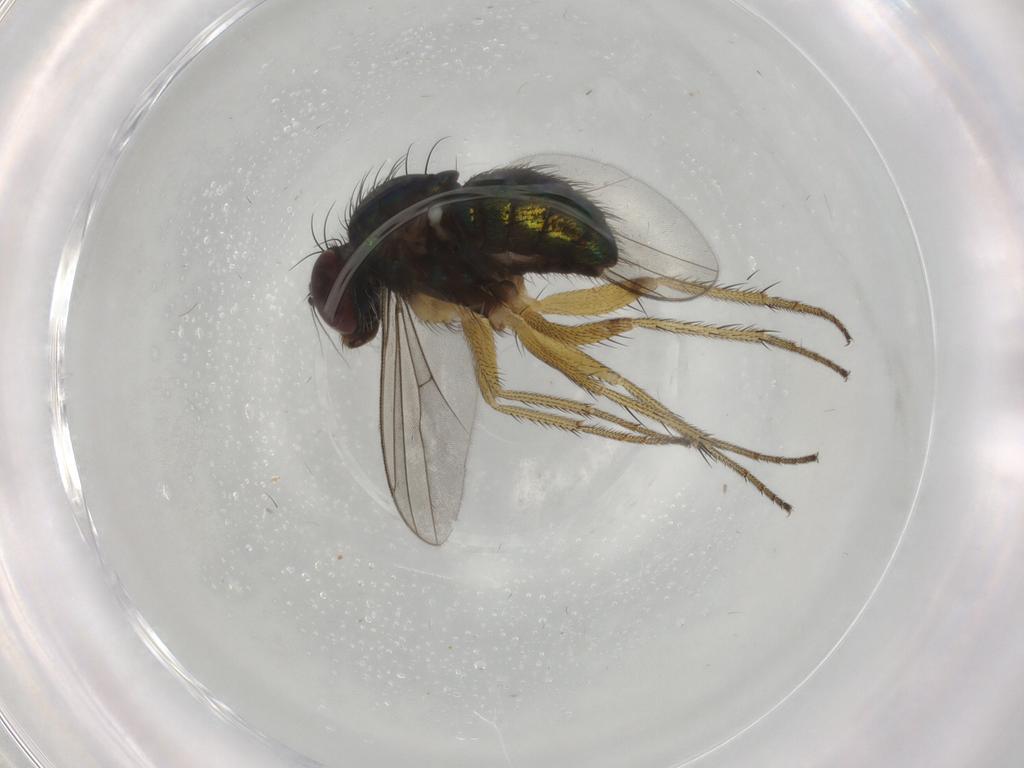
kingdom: Animalia
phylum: Arthropoda
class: Insecta
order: Diptera
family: Dolichopodidae
